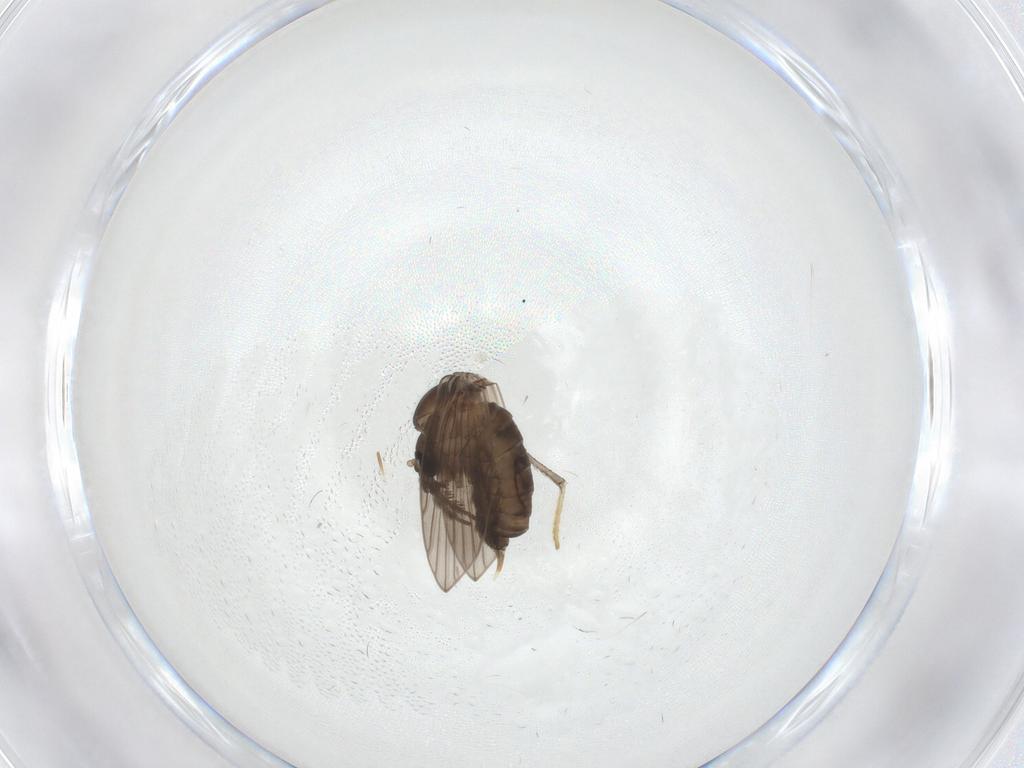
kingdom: Animalia
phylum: Arthropoda
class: Insecta
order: Diptera
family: Psychodidae
